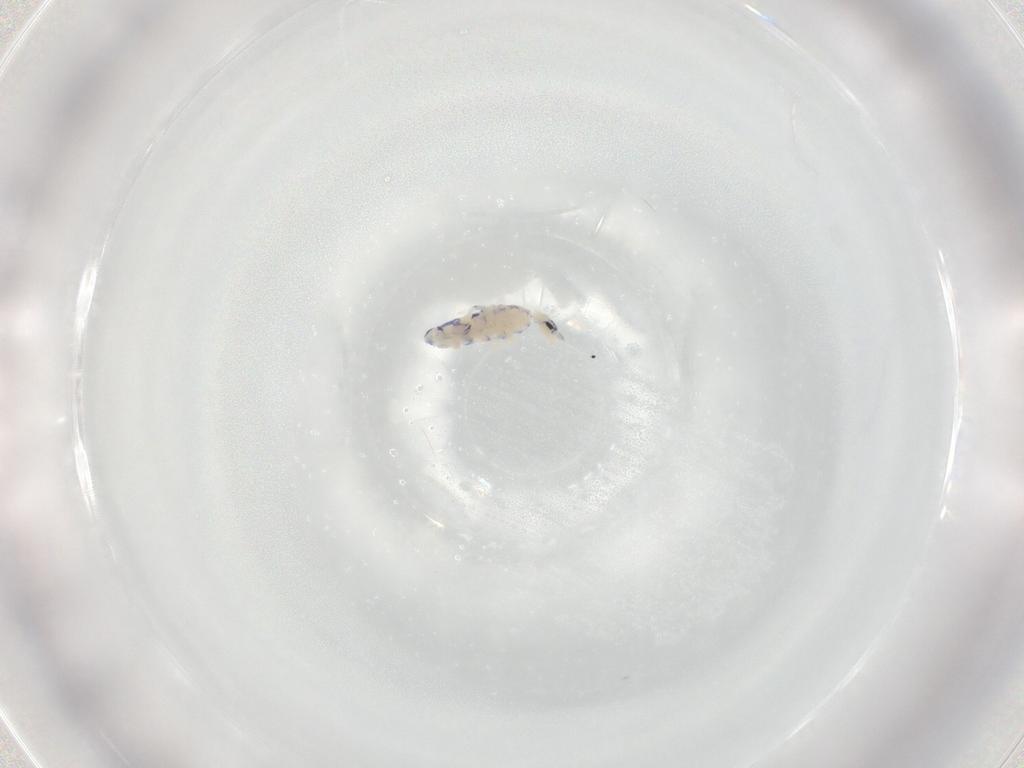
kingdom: Animalia
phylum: Arthropoda
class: Collembola
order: Entomobryomorpha
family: Entomobryidae
